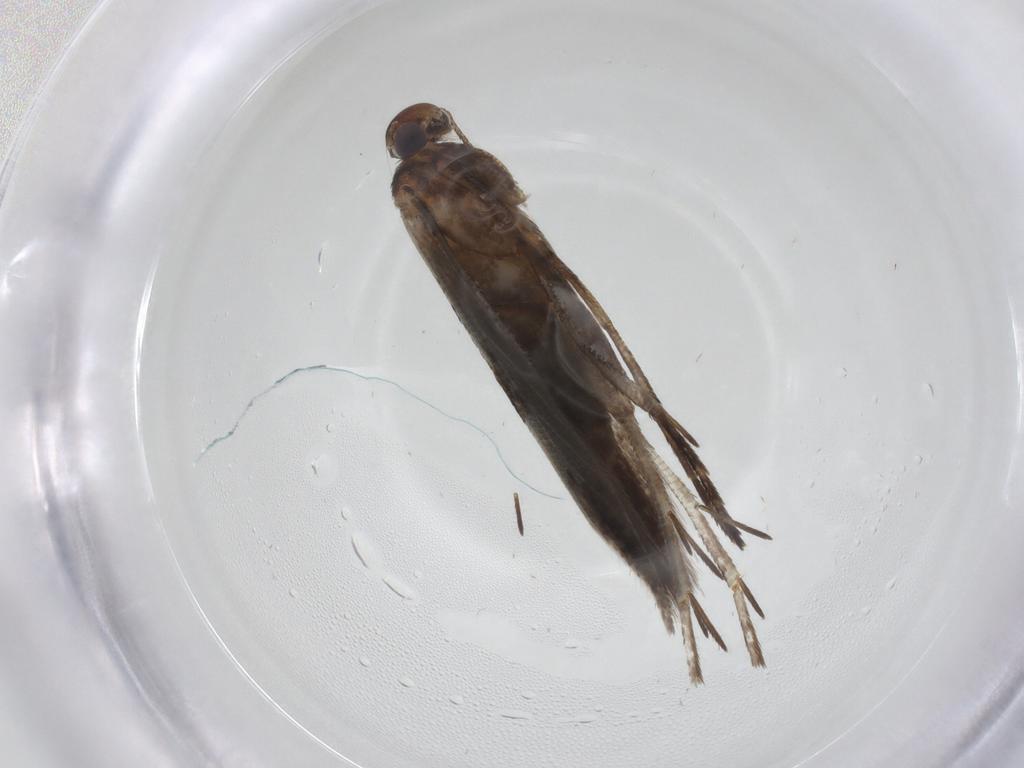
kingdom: Animalia
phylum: Arthropoda
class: Insecta
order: Lepidoptera
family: Gelechiidae
